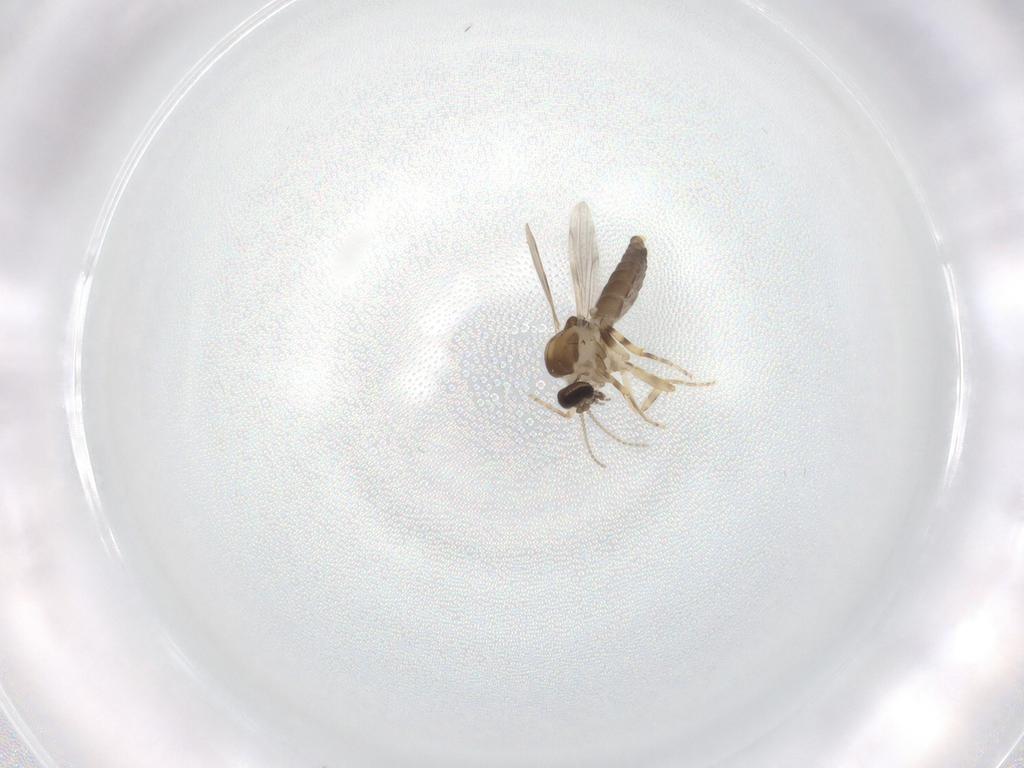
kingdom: Animalia
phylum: Arthropoda
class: Insecta
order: Diptera
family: Ceratopogonidae
